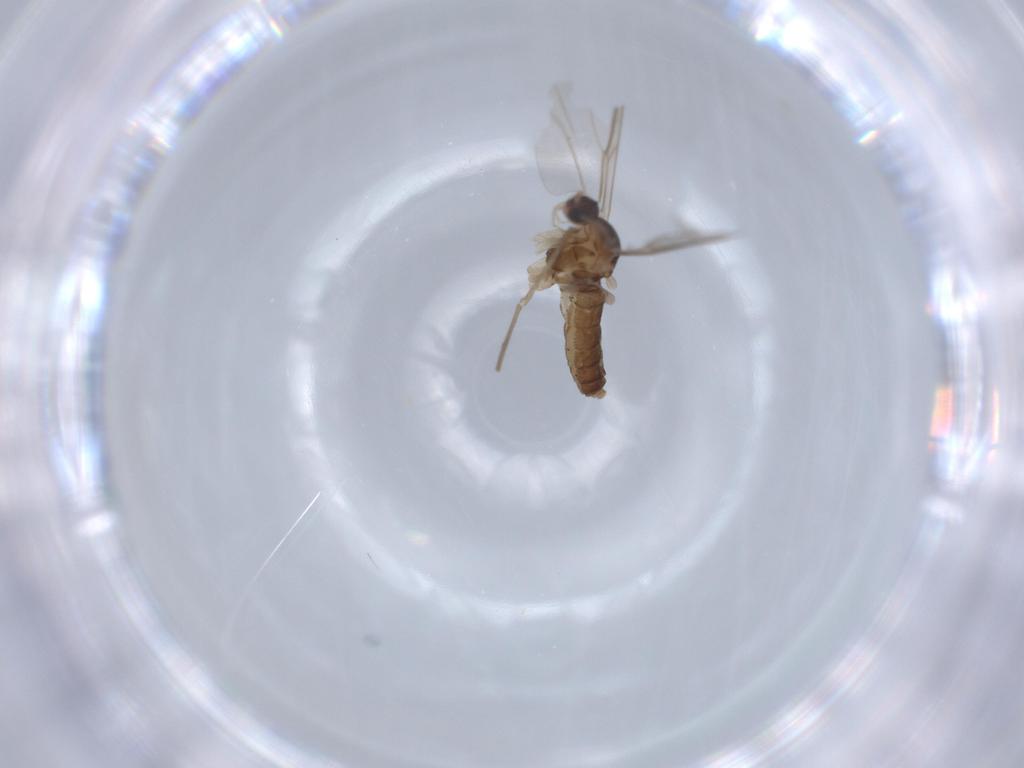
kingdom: Animalia
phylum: Arthropoda
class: Insecta
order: Diptera
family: Cecidomyiidae
